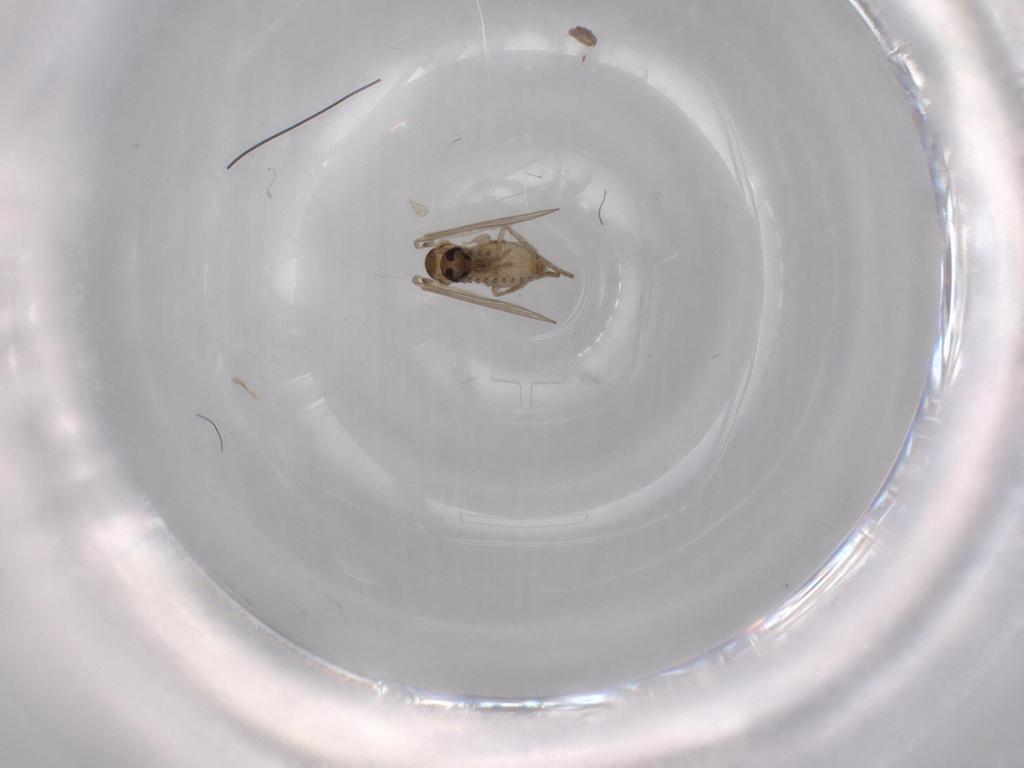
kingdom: Animalia
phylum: Arthropoda
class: Insecta
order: Diptera
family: Psychodidae
